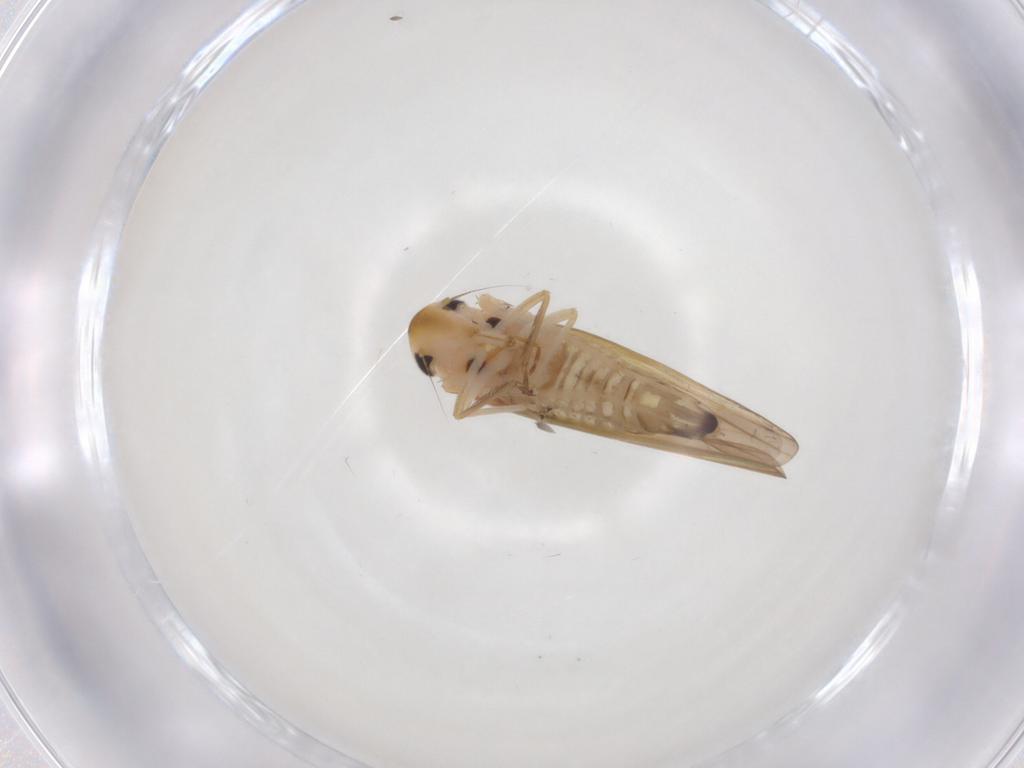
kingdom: Animalia
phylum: Arthropoda
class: Insecta
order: Hemiptera
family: Cicadellidae
